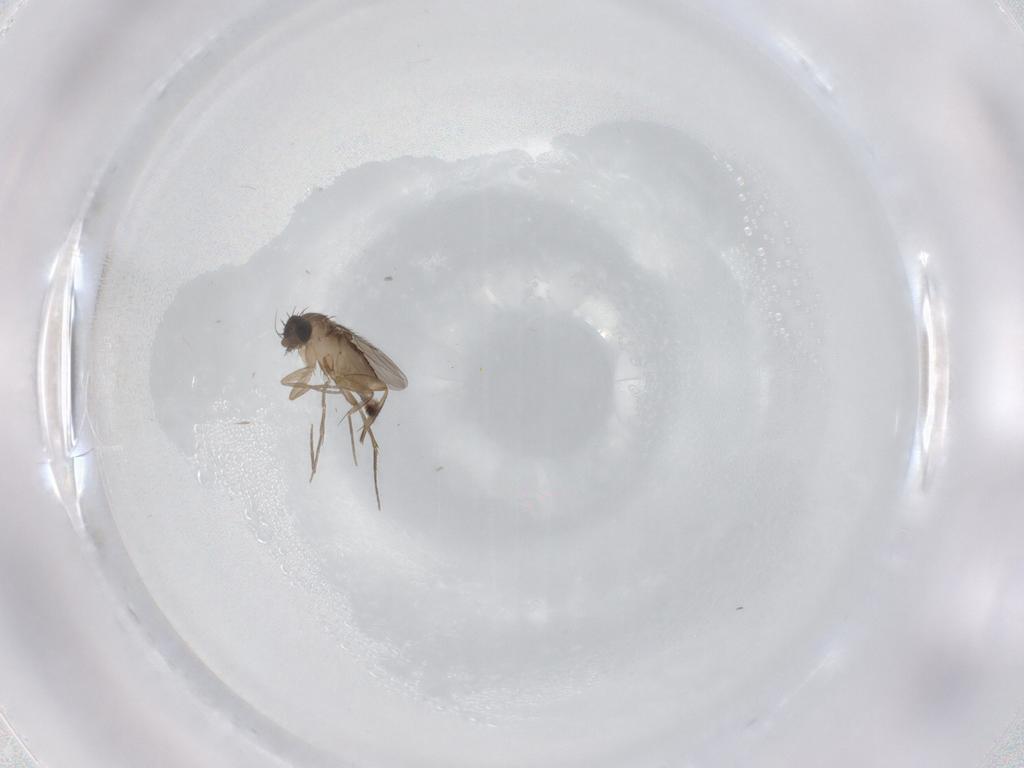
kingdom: Animalia
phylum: Arthropoda
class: Insecta
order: Diptera
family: Phoridae
